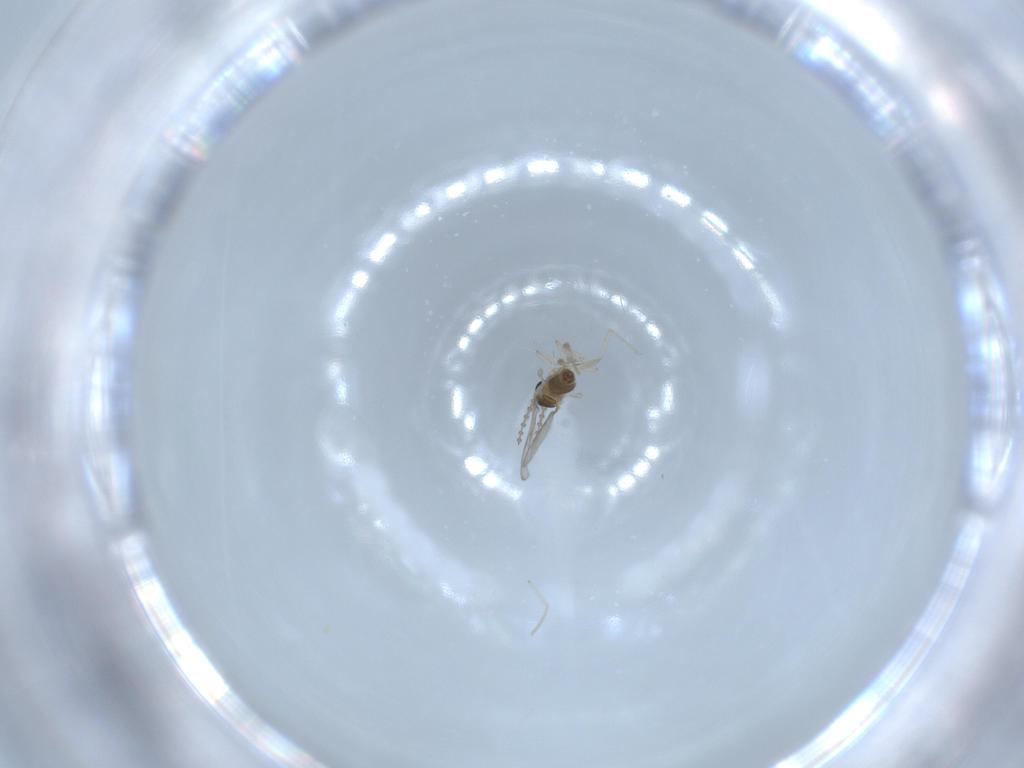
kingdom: Animalia
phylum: Arthropoda
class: Insecta
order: Diptera
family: Cecidomyiidae
